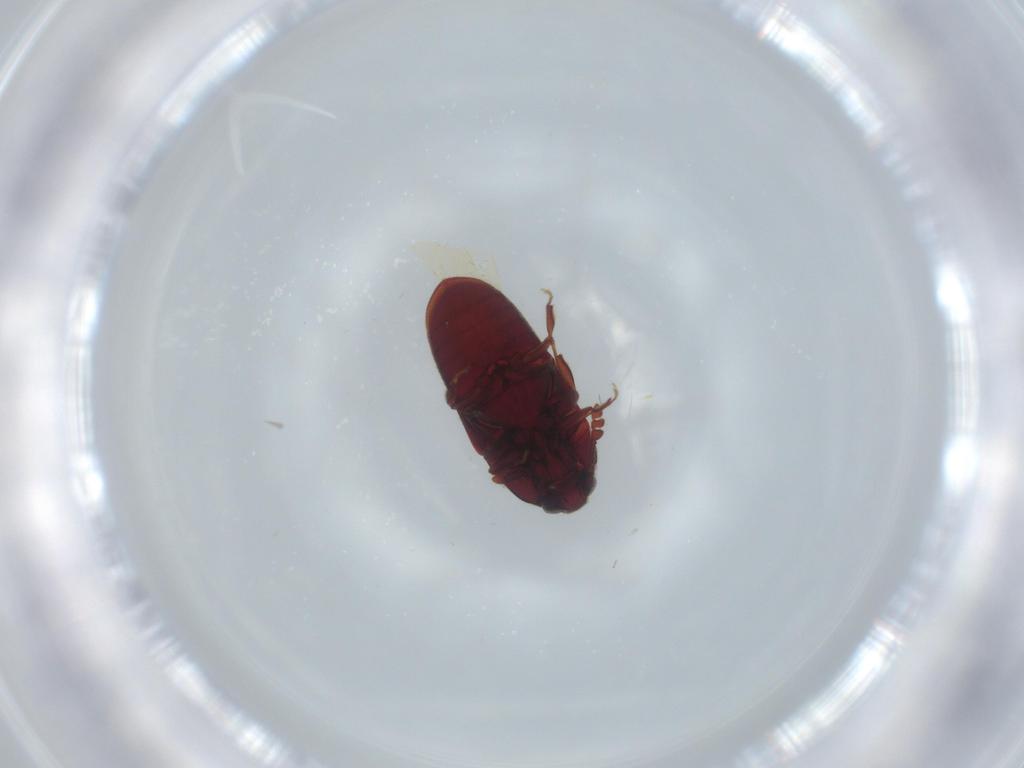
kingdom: Animalia
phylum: Arthropoda
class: Insecta
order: Coleoptera
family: Throscidae
